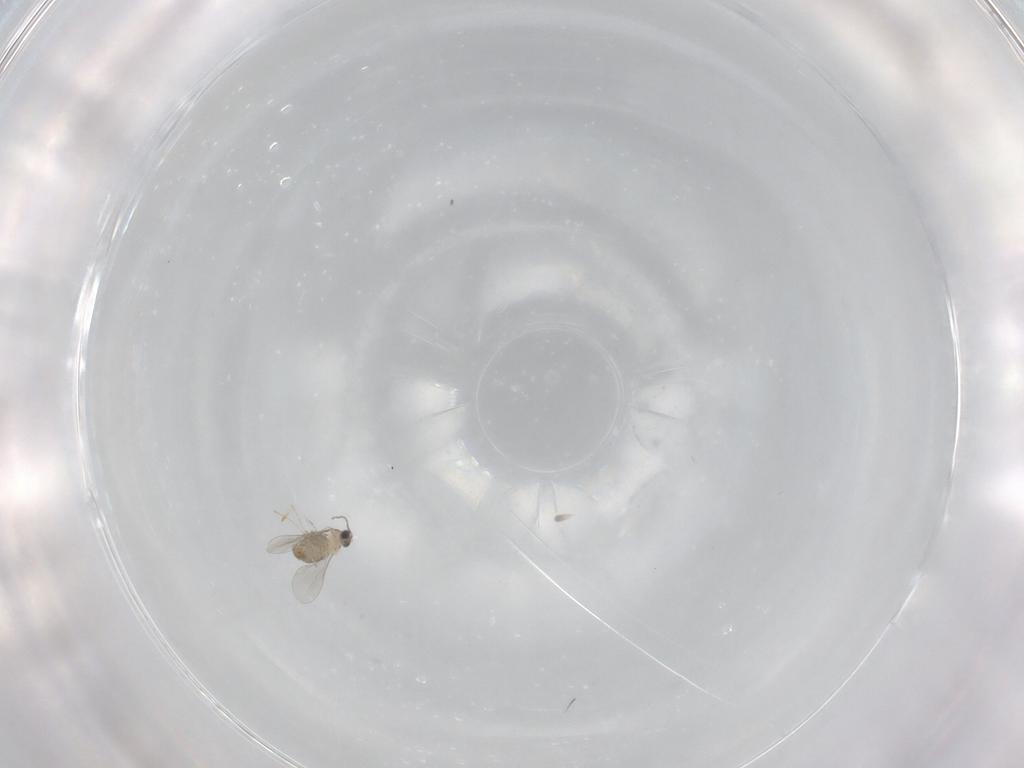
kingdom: Animalia
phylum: Arthropoda
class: Insecta
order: Diptera
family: Cecidomyiidae
